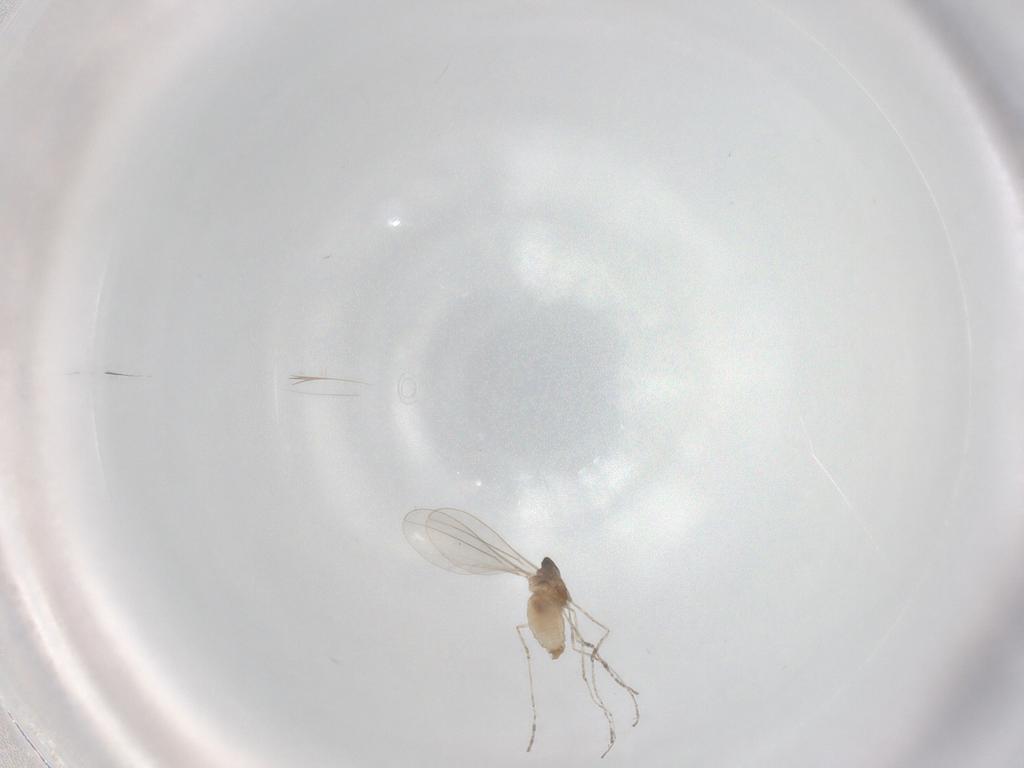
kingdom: Animalia
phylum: Arthropoda
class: Insecta
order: Diptera
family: Cecidomyiidae
